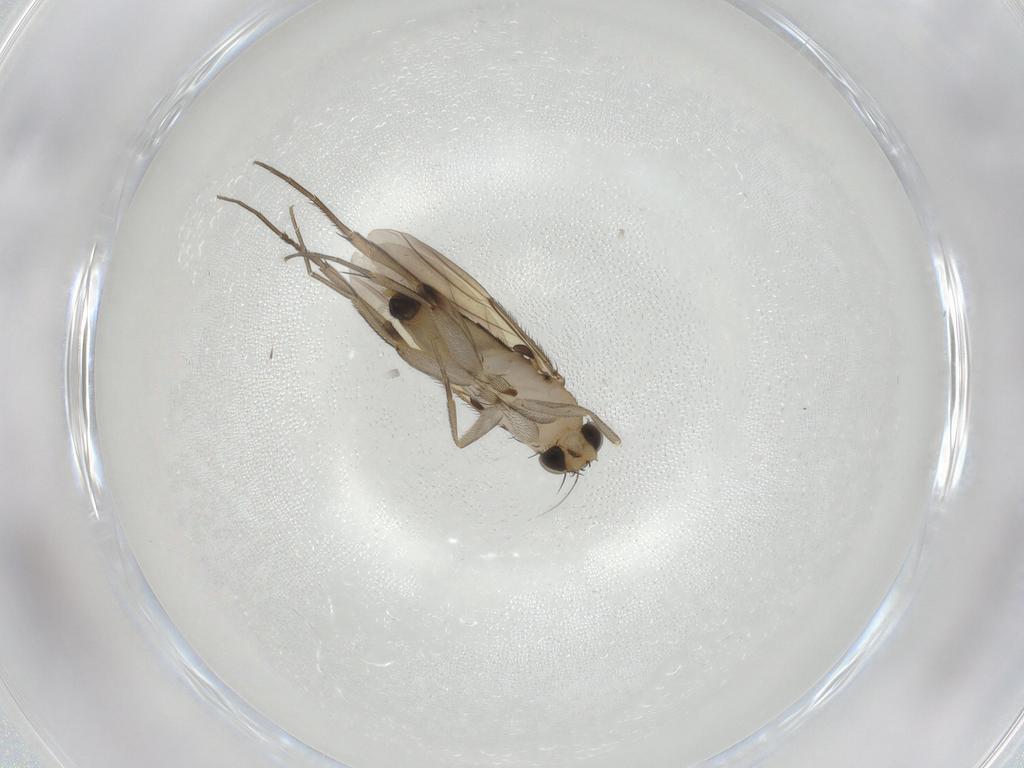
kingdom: Animalia
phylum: Arthropoda
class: Insecta
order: Diptera
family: Phoridae
